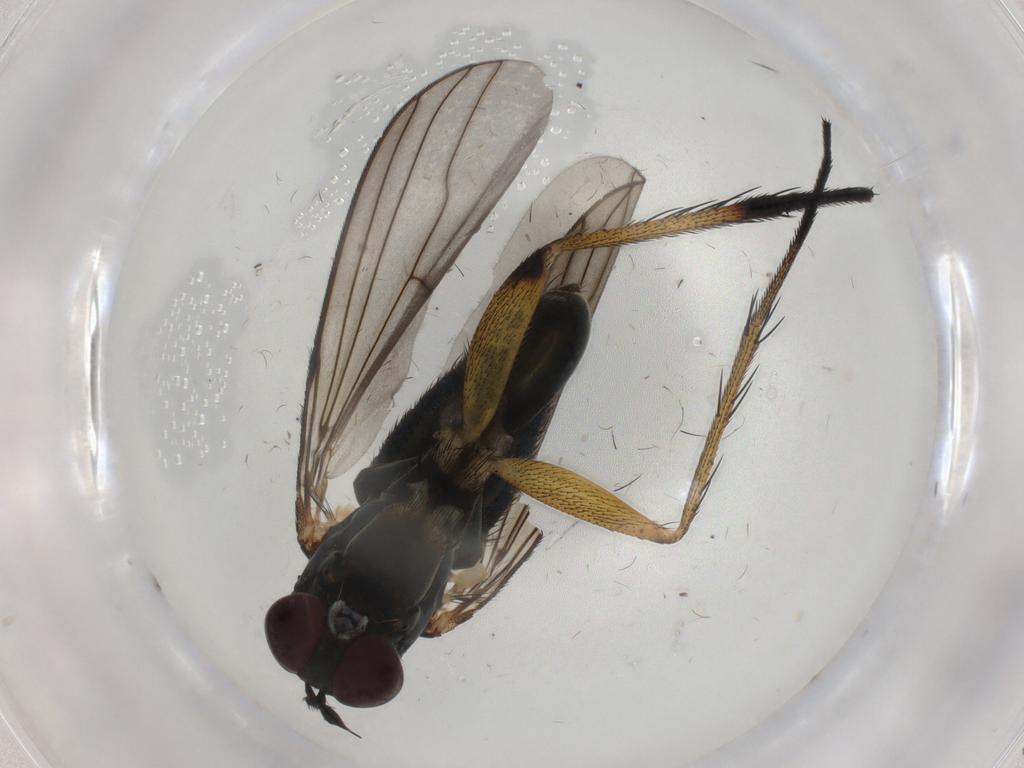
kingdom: Animalia
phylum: Arthropoda
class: Insecta
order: Diptera
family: Dolichopodidae
